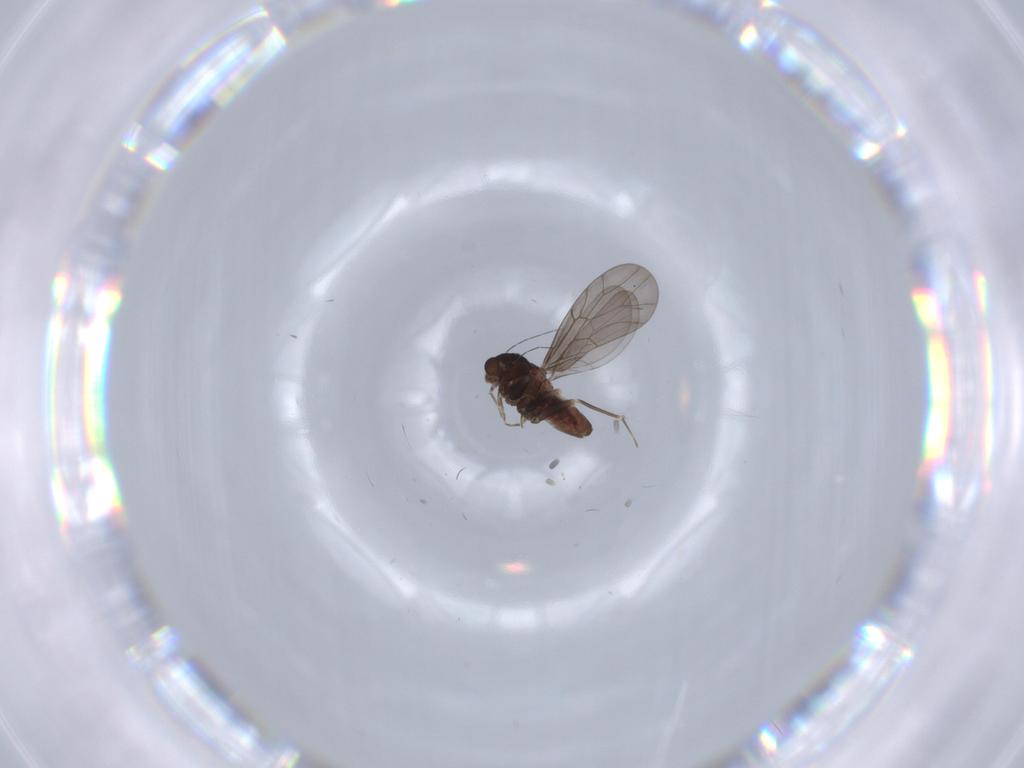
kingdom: Animalia
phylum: Arthropoda
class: Insecta
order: Psocodea
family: Lepidopsocidae
